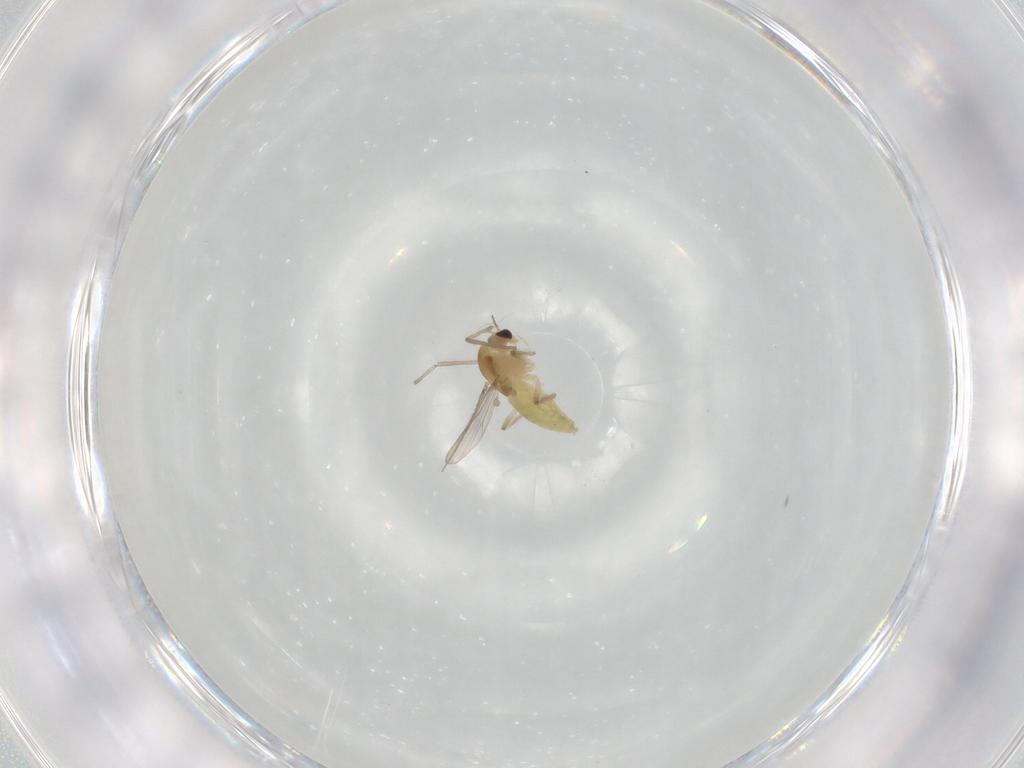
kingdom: Animalia
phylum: Arthropoda
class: Insecta
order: Diptera
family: Chironomidae
